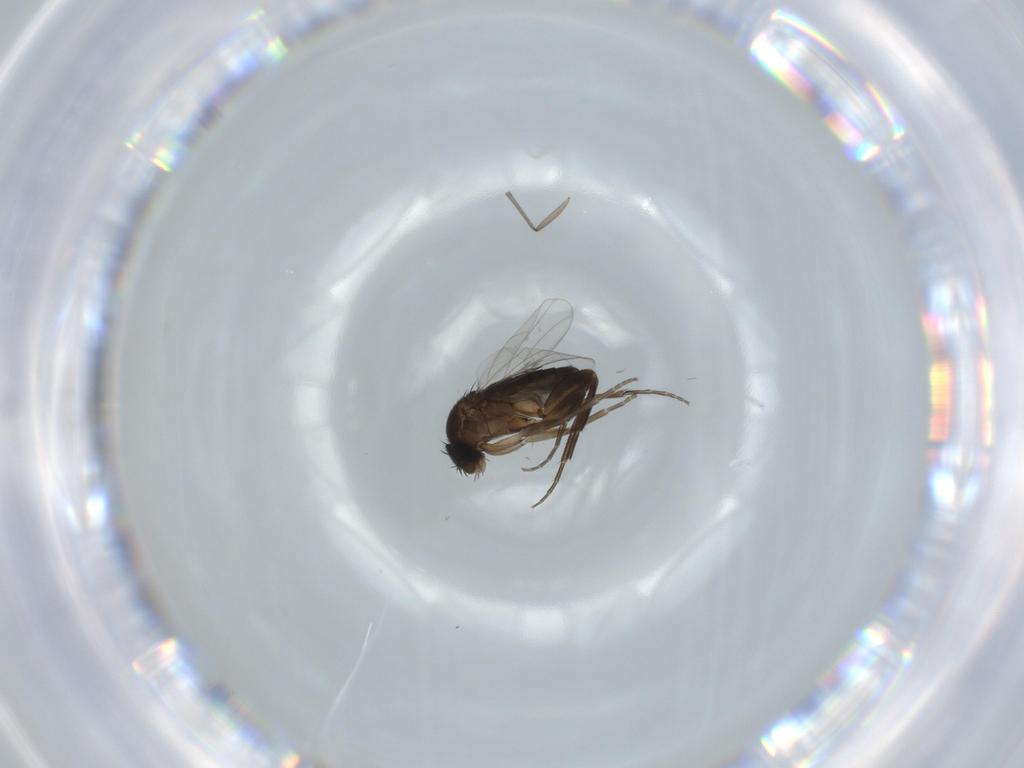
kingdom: Animalia
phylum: Arthropoda
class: Insecta
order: Diptera
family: Phoridae
